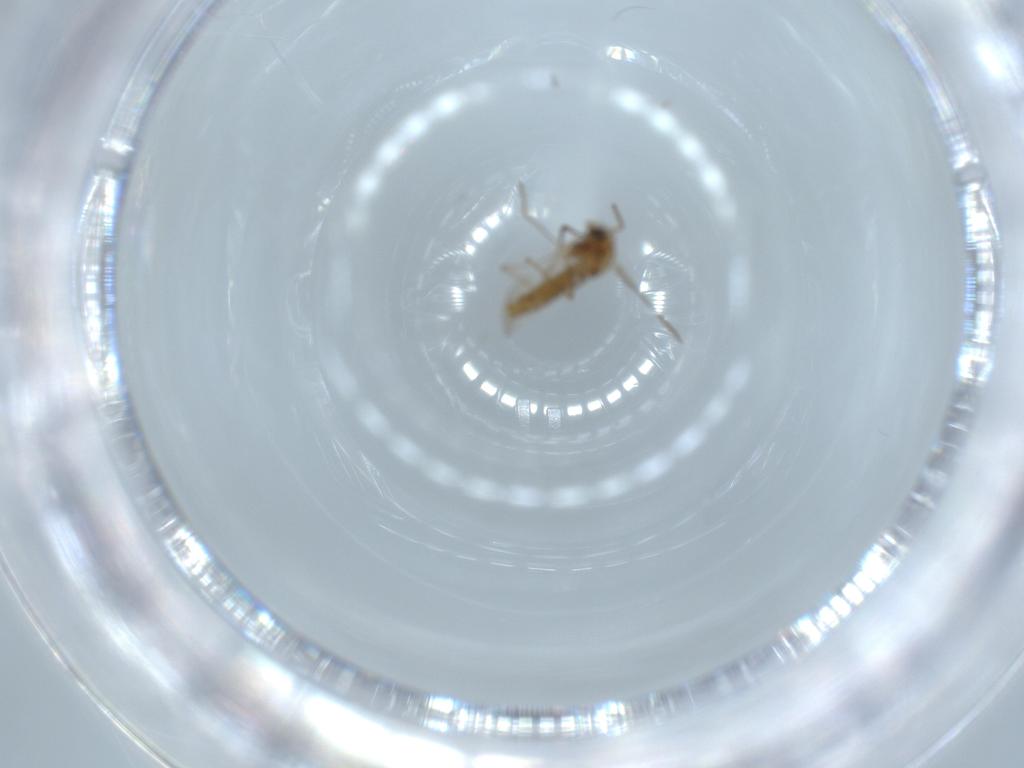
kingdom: Animalia
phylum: Arthropoda
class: Insecta
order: Diptera
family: Chironomidae
